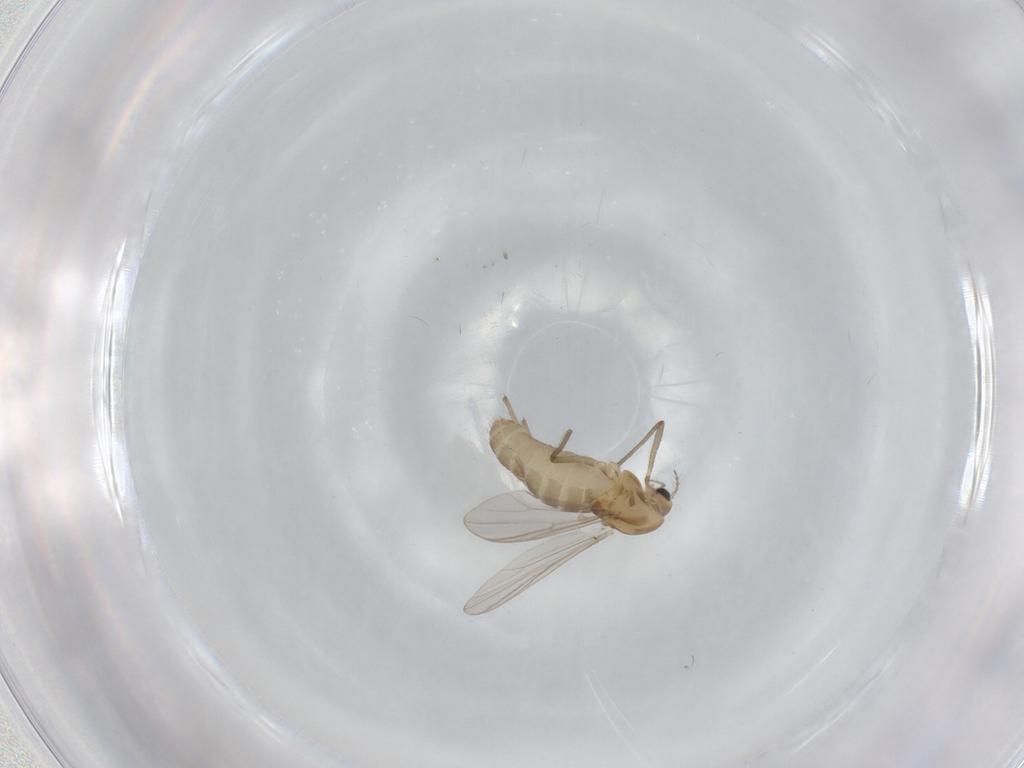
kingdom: Animalia
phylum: Arthropoda
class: Insecta
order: Diptera
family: Chironomidae
